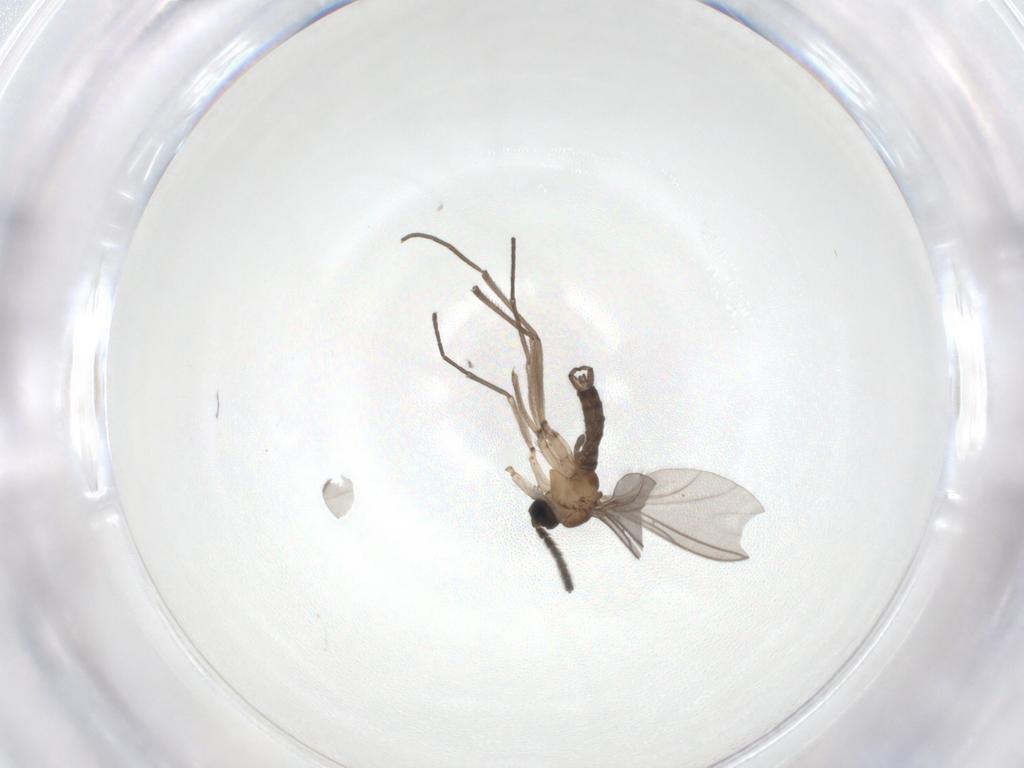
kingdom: Animalia
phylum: Arthropoda
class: Insecta
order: Diptera
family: Sciaridae
